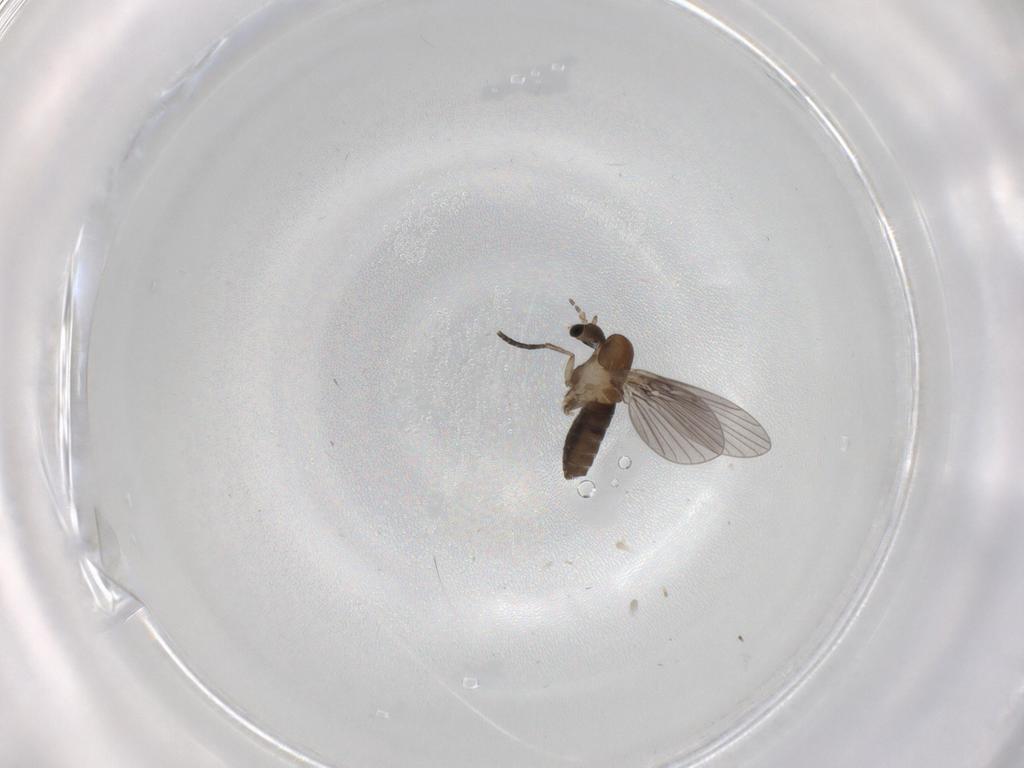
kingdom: Animalia
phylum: Arthropoda
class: Insecta
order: Diptera
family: Psychodidae
